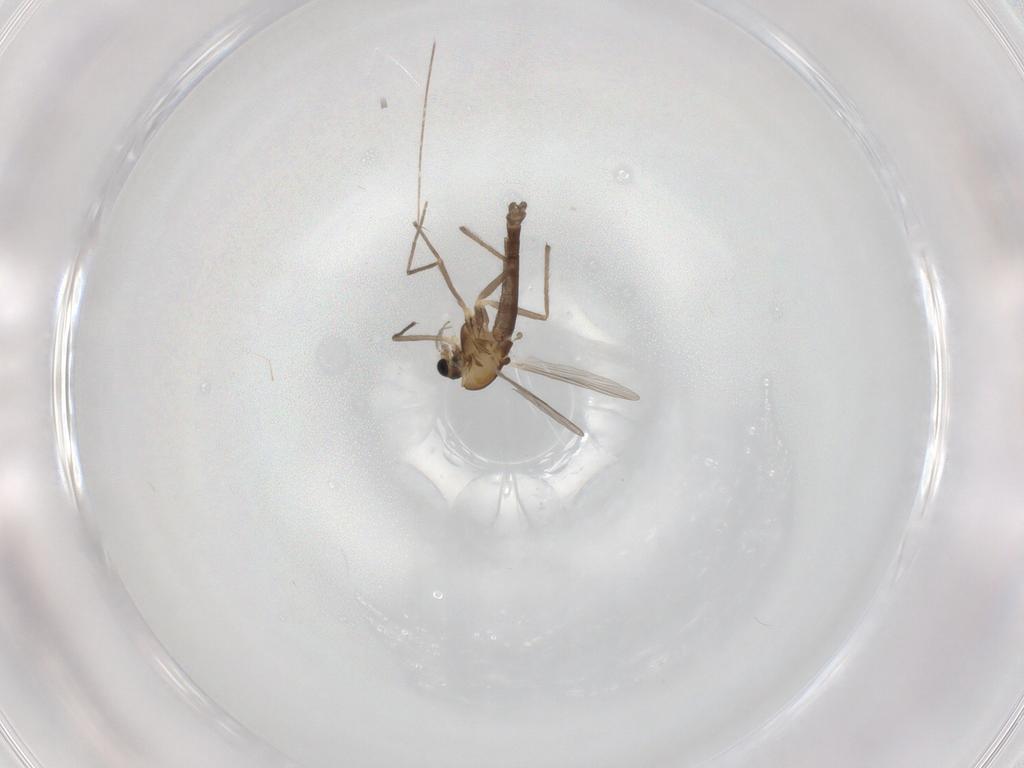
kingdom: Animalia
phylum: Arthropoda
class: Insecta
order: Diptera
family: Chironomidae
